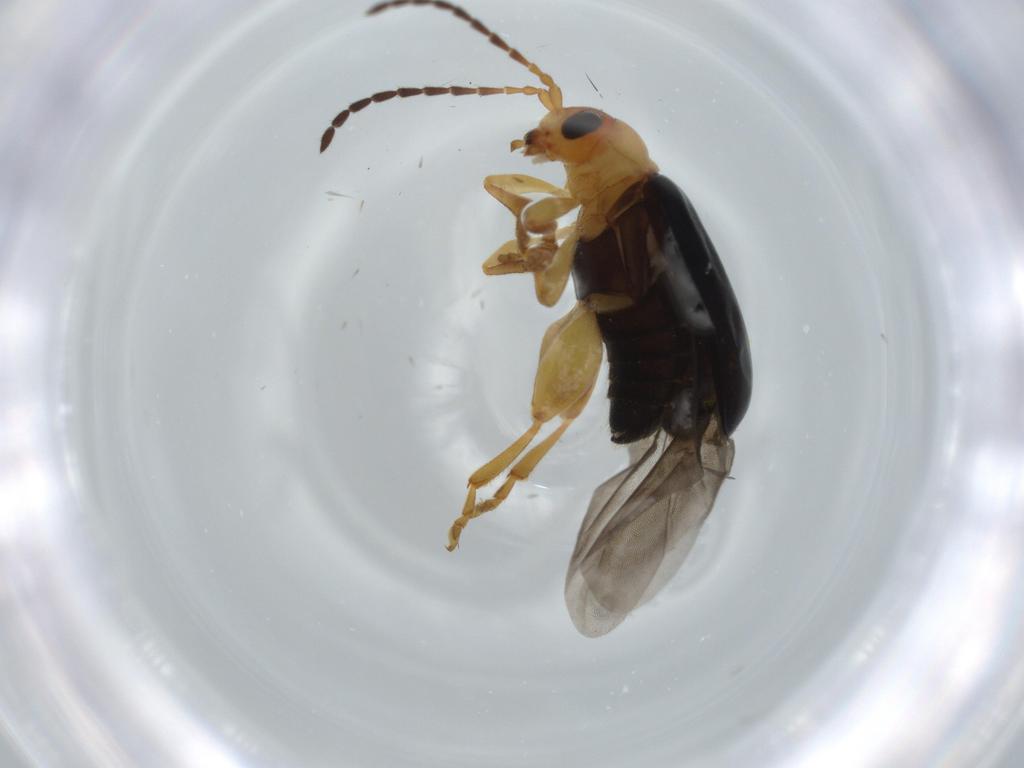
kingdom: Animalia
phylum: Arthropoda
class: Insecta
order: Coleoptera
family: Chrysomelidae
